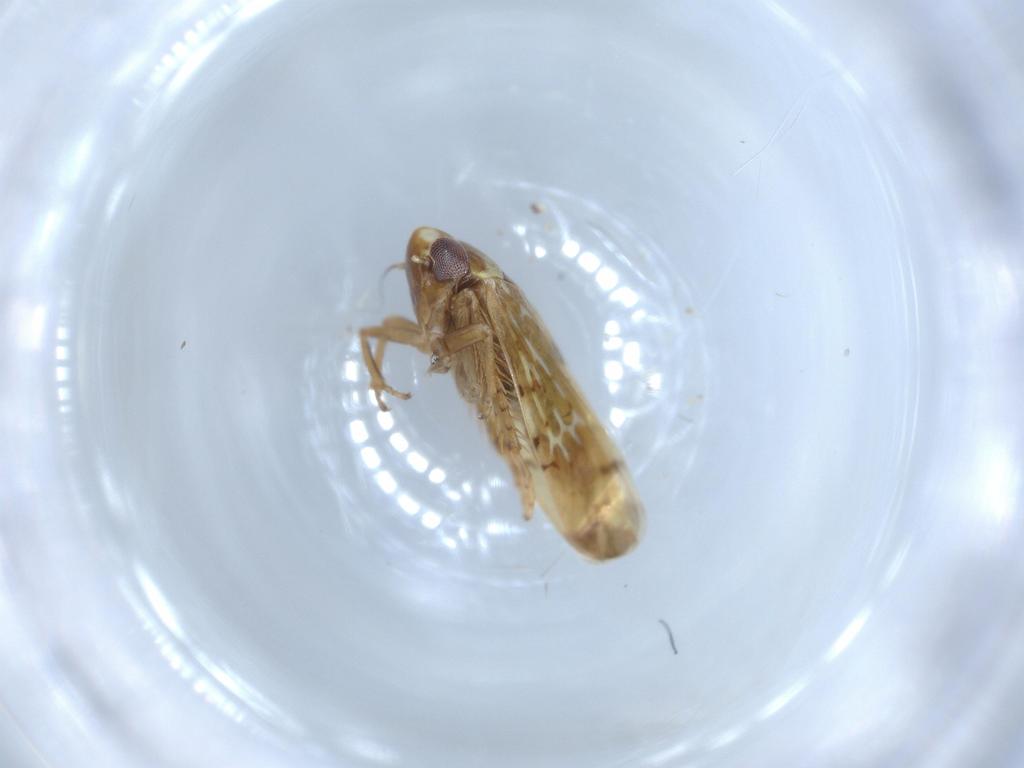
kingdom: Animalia
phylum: Arthropoda
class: Insecta
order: Hemiptera
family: Cicadellidae
